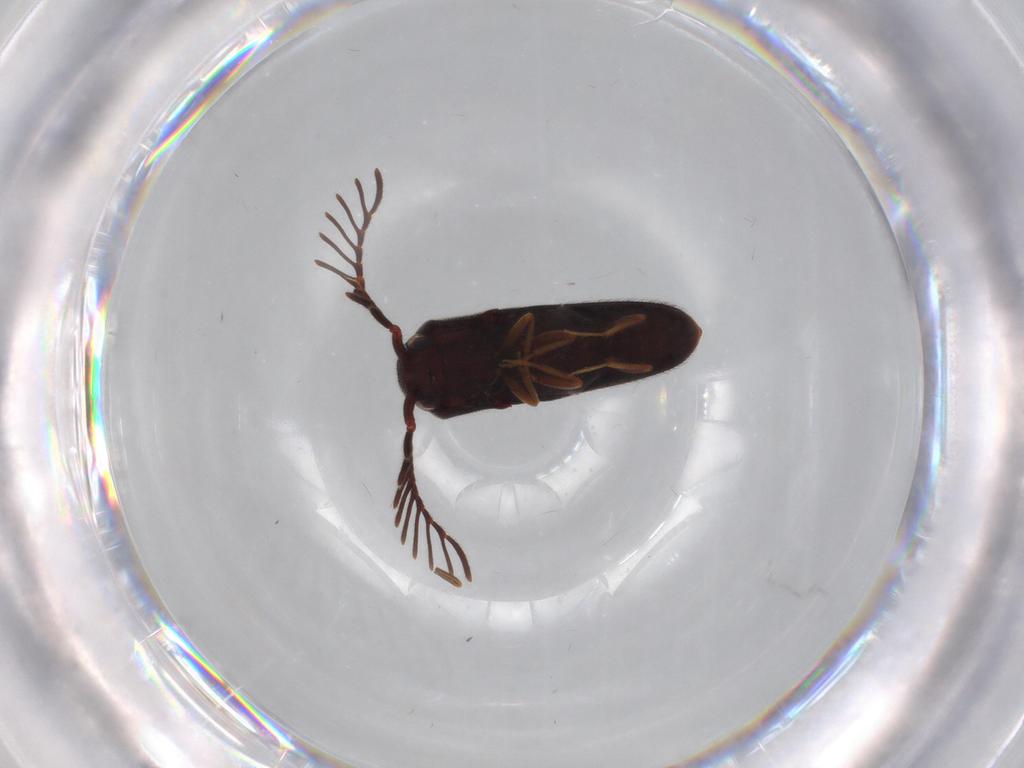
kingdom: Animalia
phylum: Arthropoda
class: Insecta
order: Coleoptera
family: Eucnemidae
